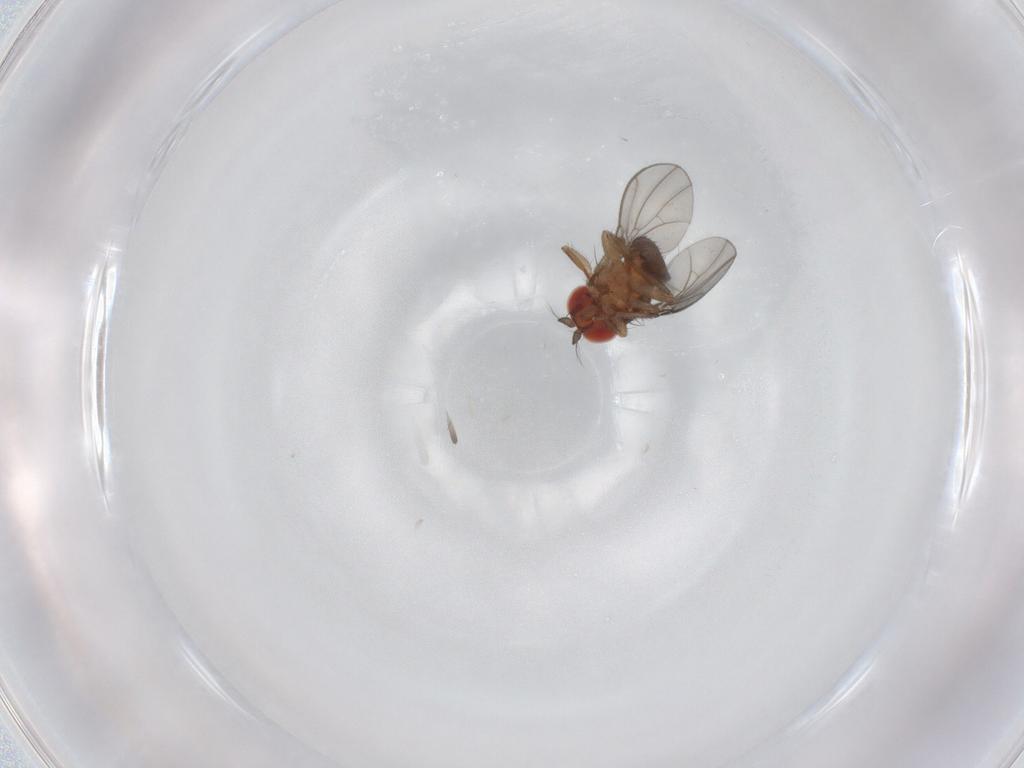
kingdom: Animalia
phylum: Arthropoda
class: Insecta
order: Diptera
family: Drosophilidae
